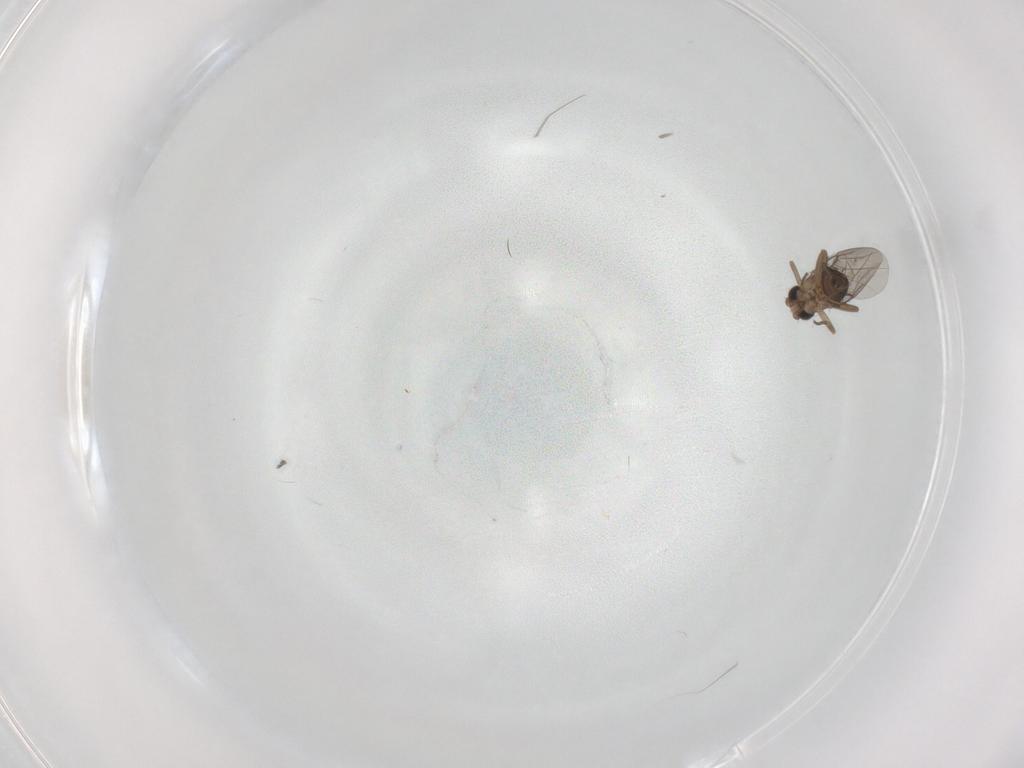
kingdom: Animalia
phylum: Arthropoda
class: Insecta
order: Diptera
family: Chironomidae
